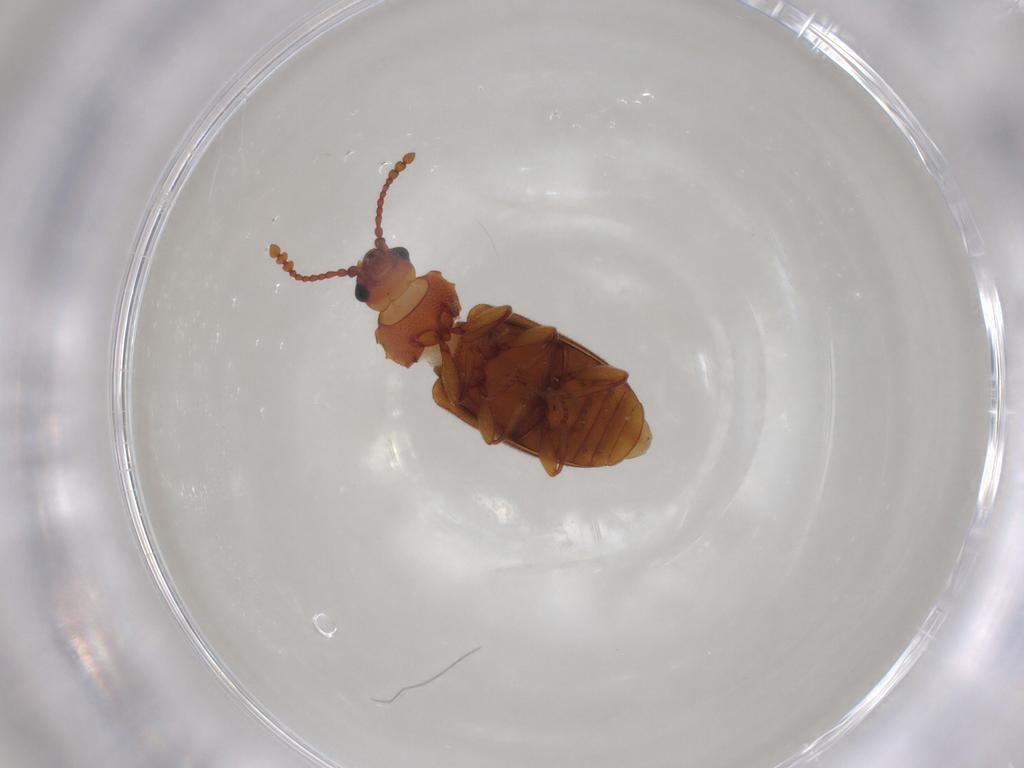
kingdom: Animalia
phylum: Arthropoda
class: Insecta
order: Coleoptera
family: Cryptophagidae
